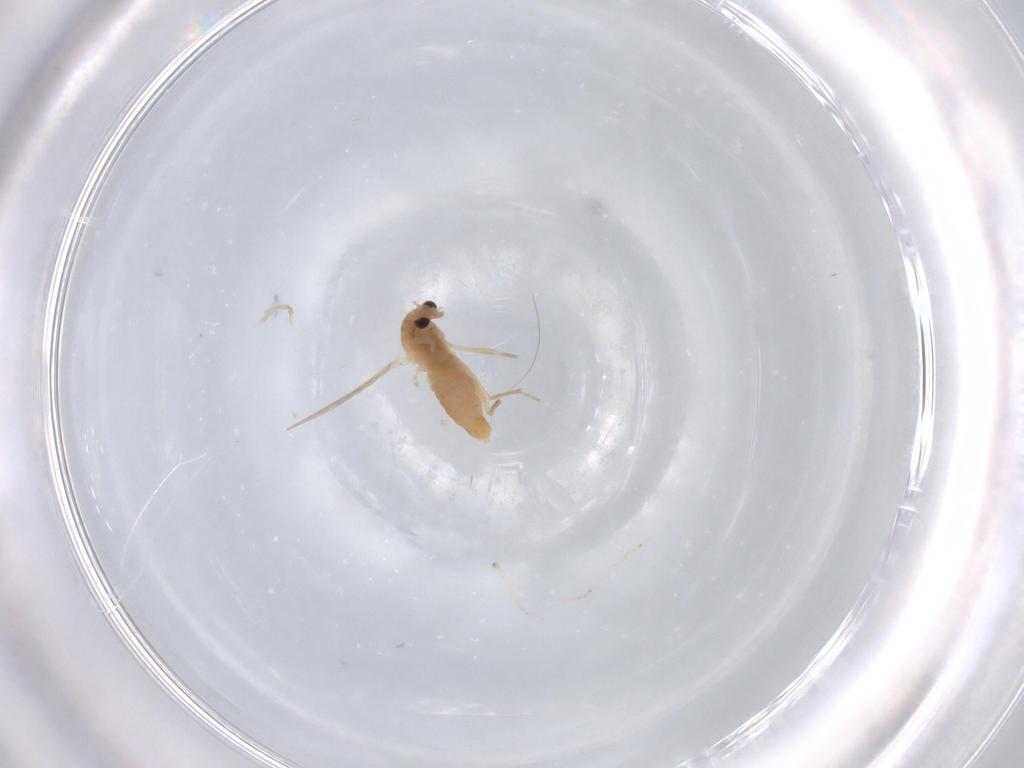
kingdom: Animalia
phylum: Arthropoda
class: Insecta
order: Diptera
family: Chironomidae
